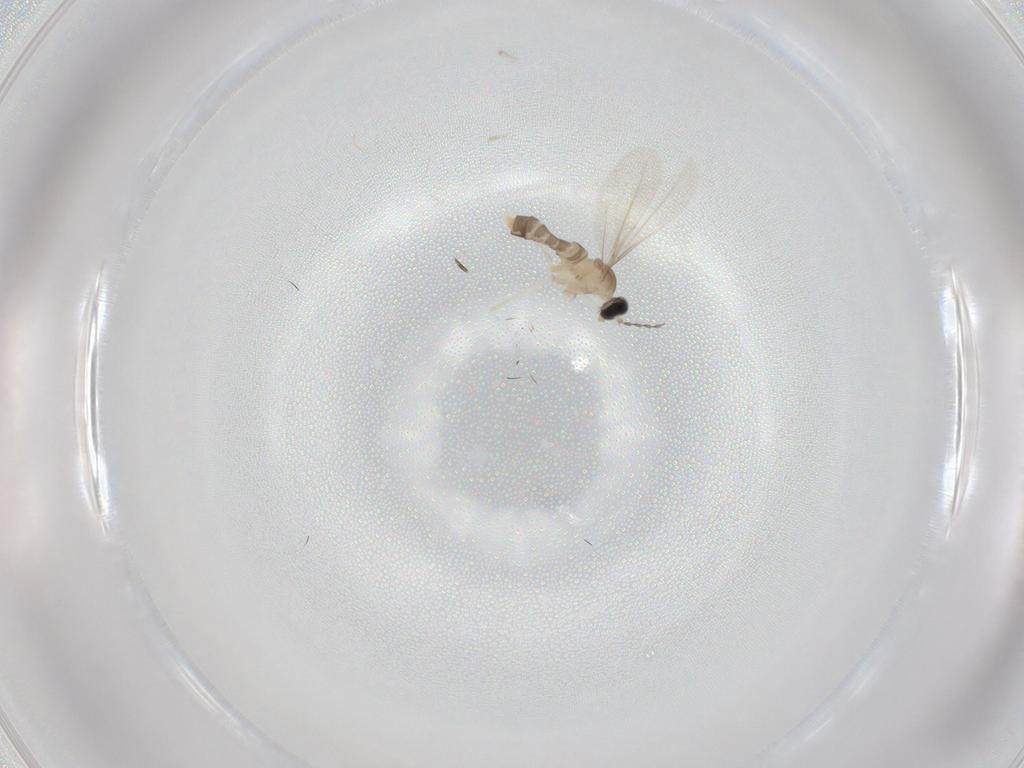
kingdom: Animalia
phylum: Arthropoda
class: Insecta
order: Diptera
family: Cecidomyiidae
